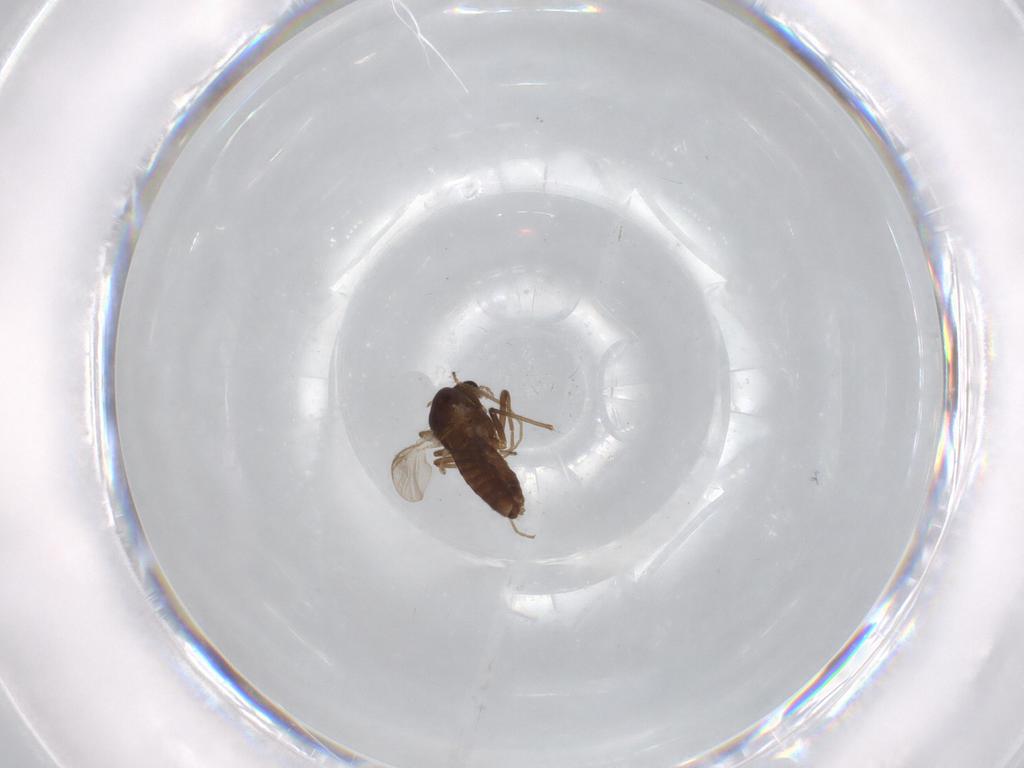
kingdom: Animalia
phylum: Arthropoda
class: Insecta
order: Diptera
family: Chironomidae
